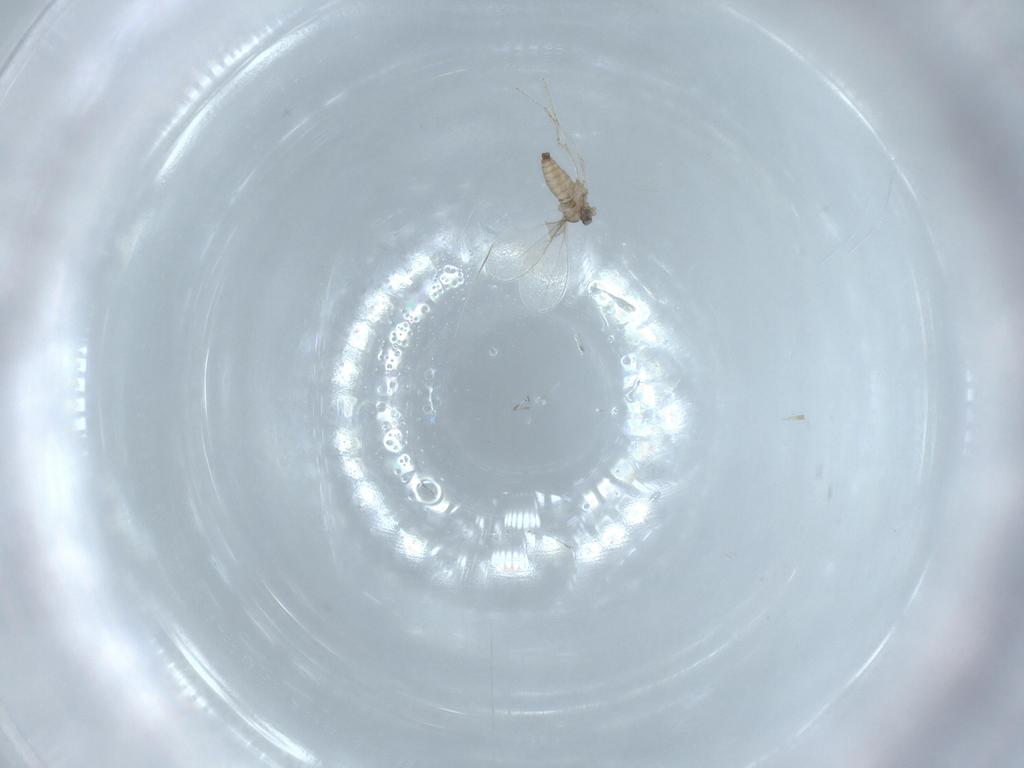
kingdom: Animalia
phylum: Arthropoda
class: Insecta
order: Diptera
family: Cecidomyiidae
